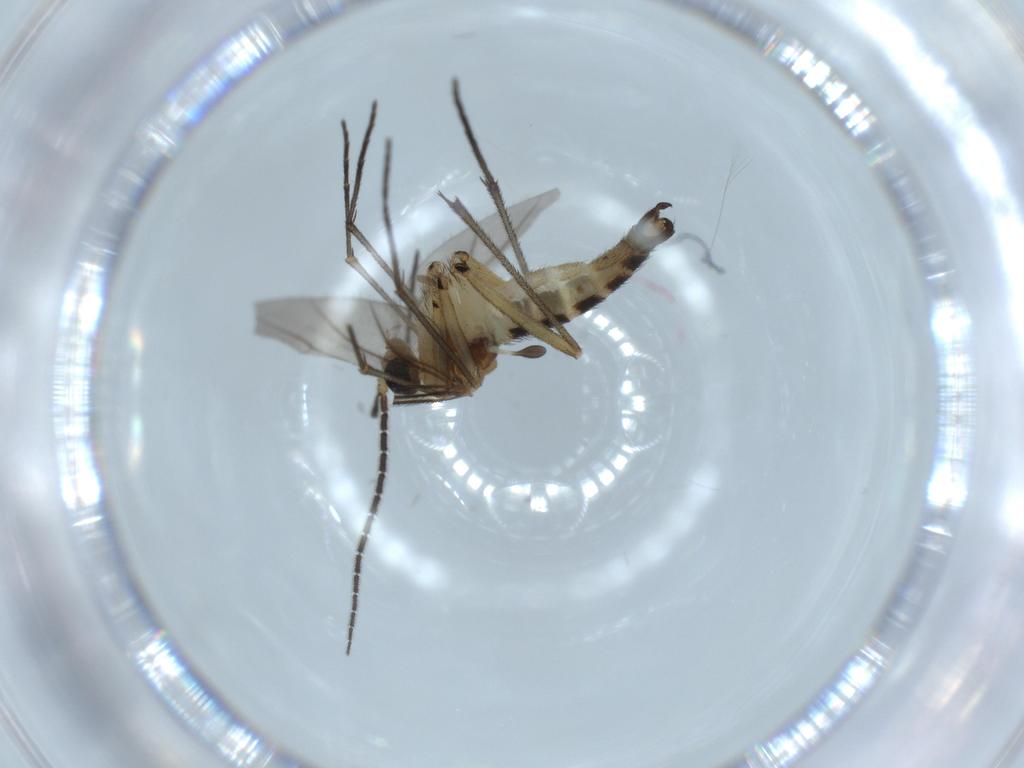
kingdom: Animalia
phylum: Arthropoda
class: Insecta
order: Diptera
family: Sciaridae
